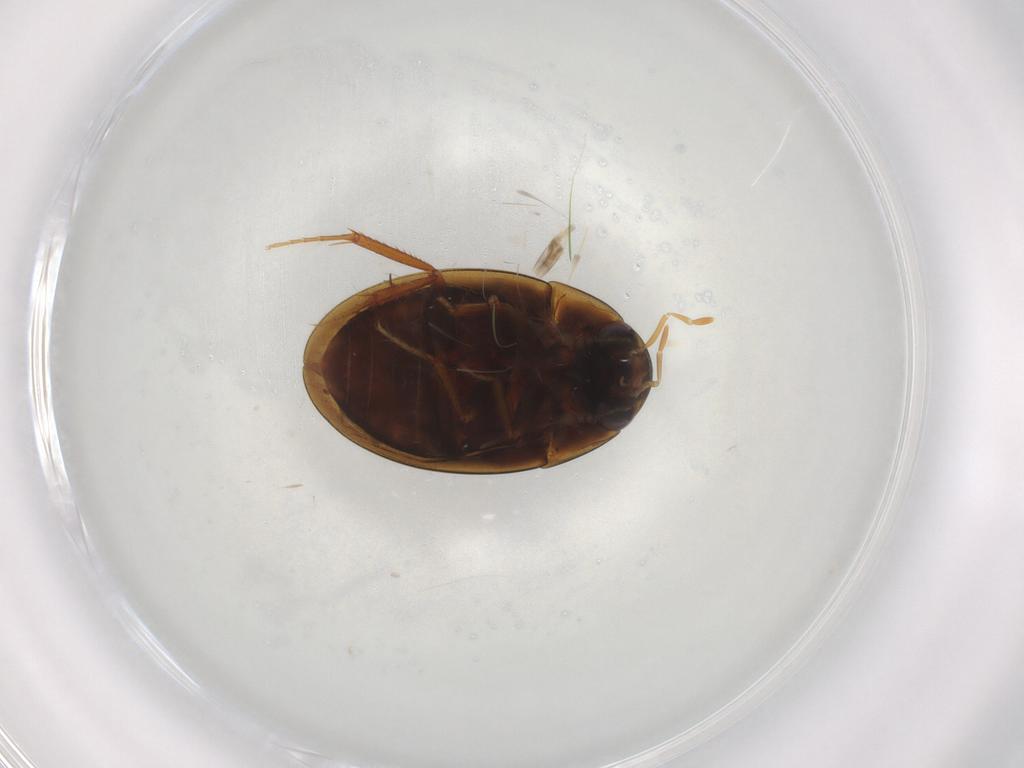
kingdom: Animalia
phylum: Arthropoda
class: Insecta
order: Coleoptera
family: Hydrophilidae
